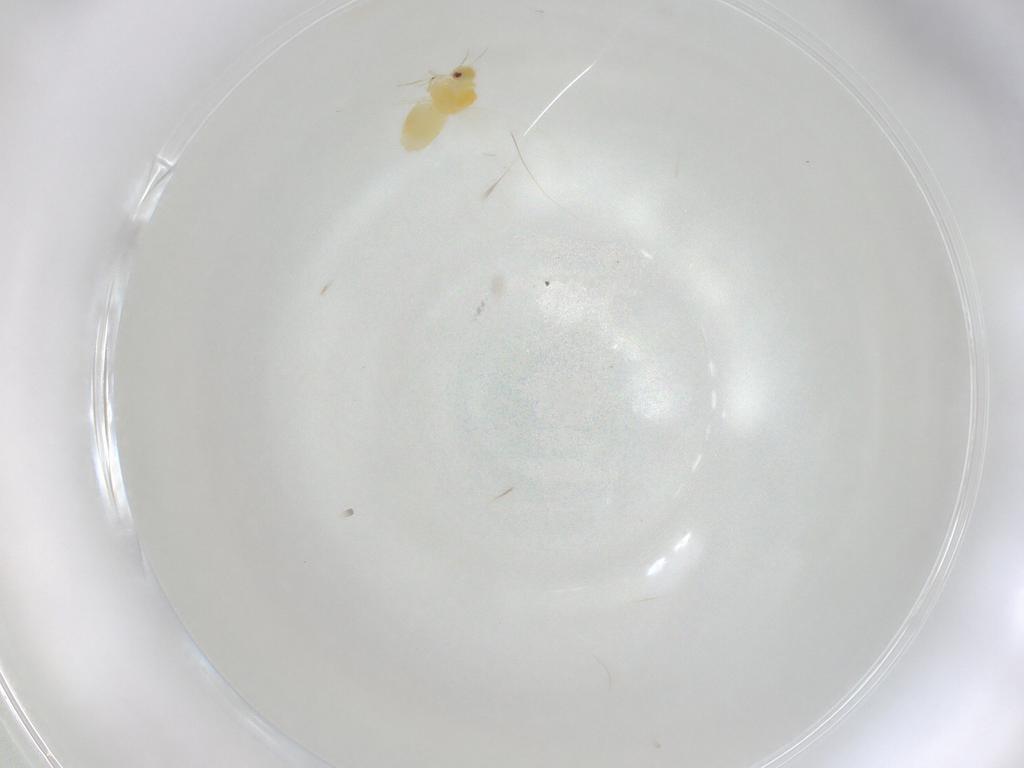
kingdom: Animalia
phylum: Arthropoda
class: Insecta
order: Hemiptera
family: Aleyrodidae
